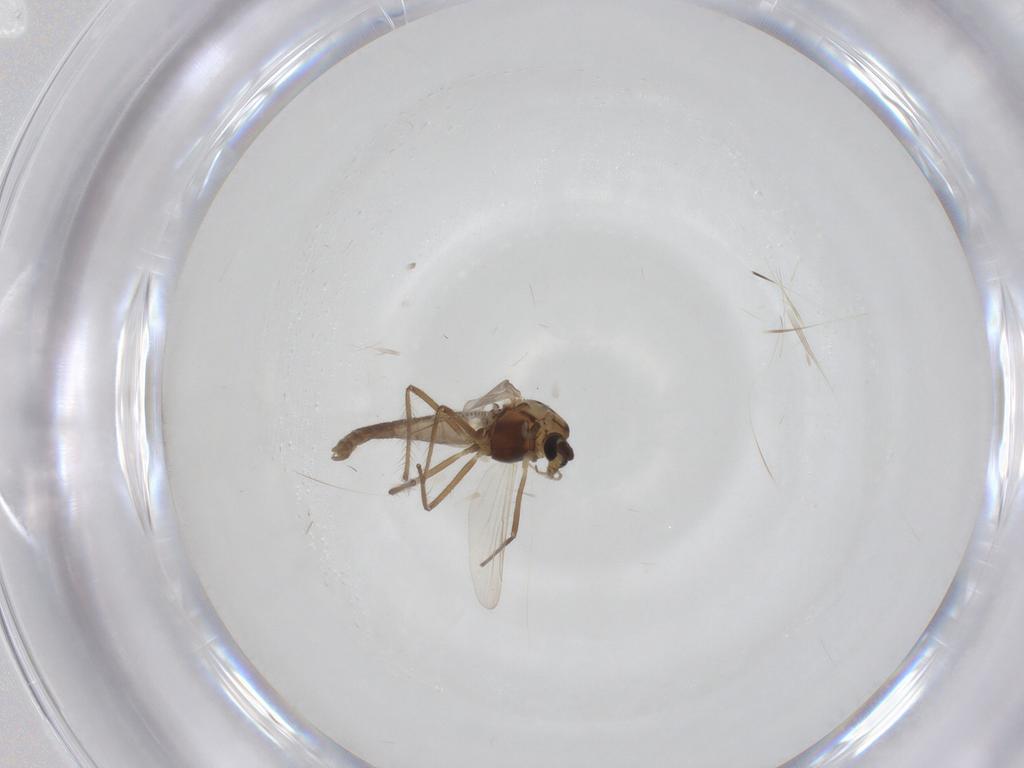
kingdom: Animalia
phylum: Arthropoda
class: Insecta
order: Diptera
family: Chironomidae
